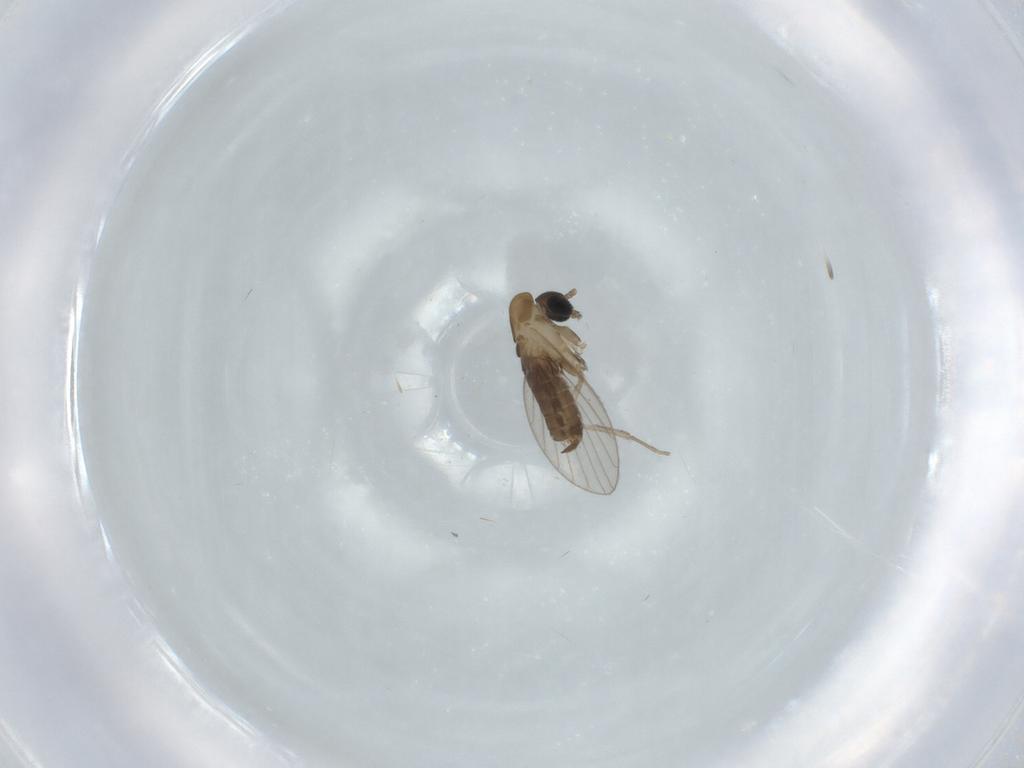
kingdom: Animalia
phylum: Arthropoda
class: Insecta
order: Diptera
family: Psychodidae
